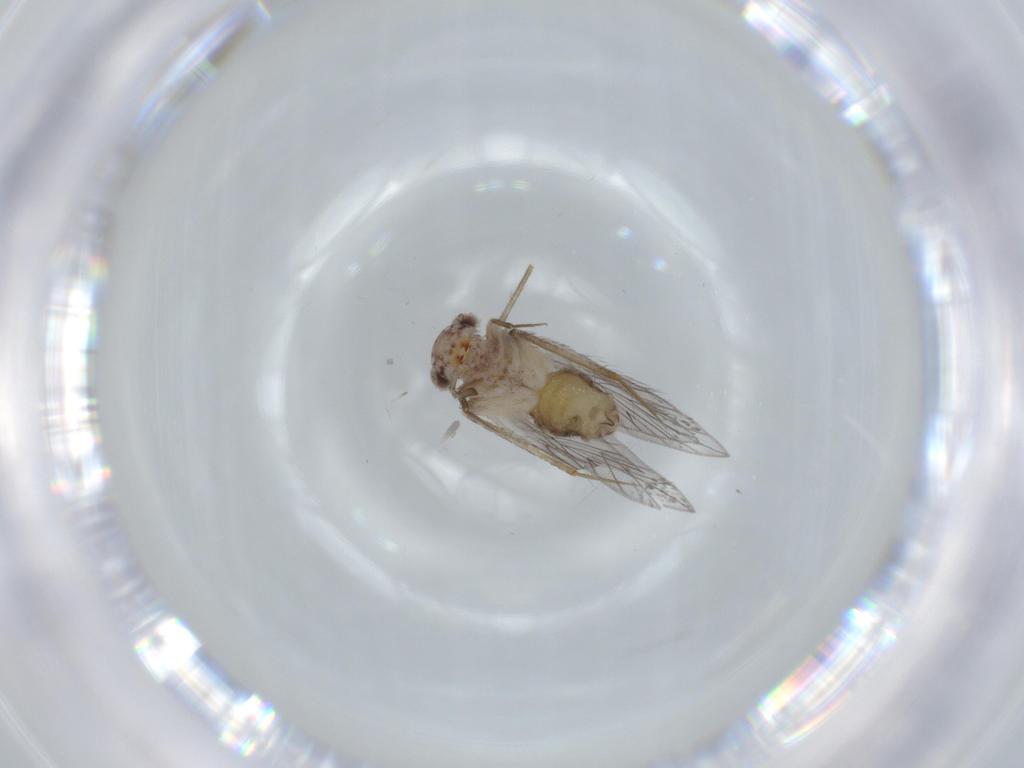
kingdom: Animalia
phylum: Arthropoda
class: Insecta
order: Psocodea
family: Lepidopsocidae
